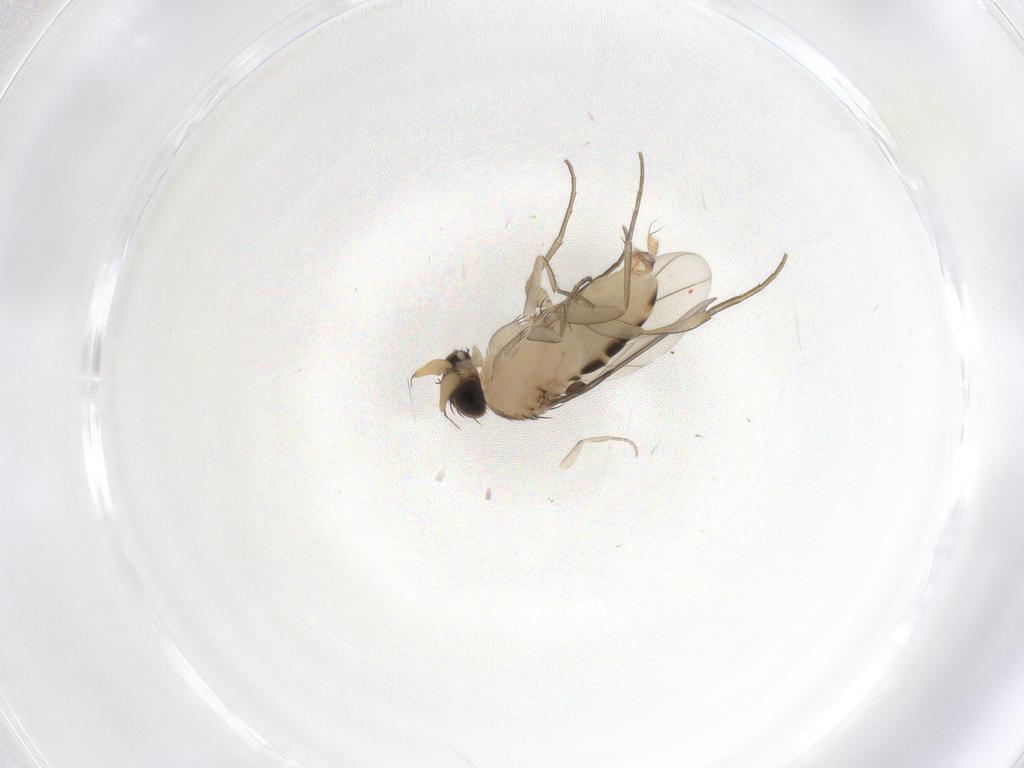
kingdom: Animalia
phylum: Arthropoda
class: Insecta
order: Diptera
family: Phoridae
